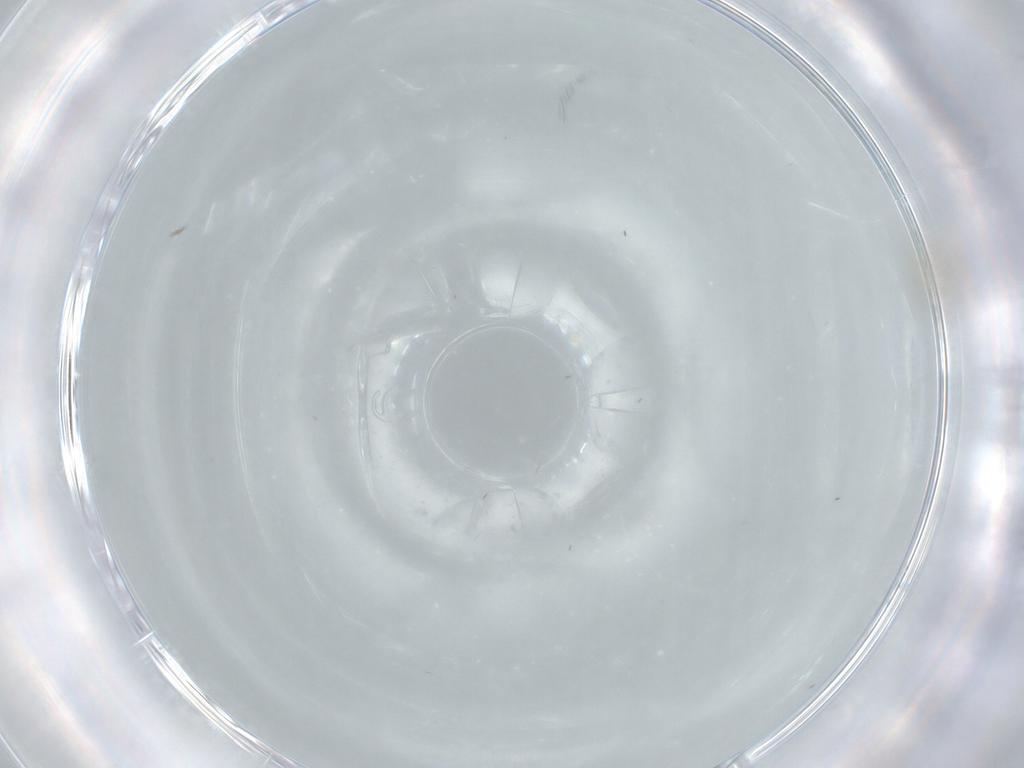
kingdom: Animalia
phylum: Arthropoda
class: Insecta
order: Diptera
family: Cecidomyiidae
